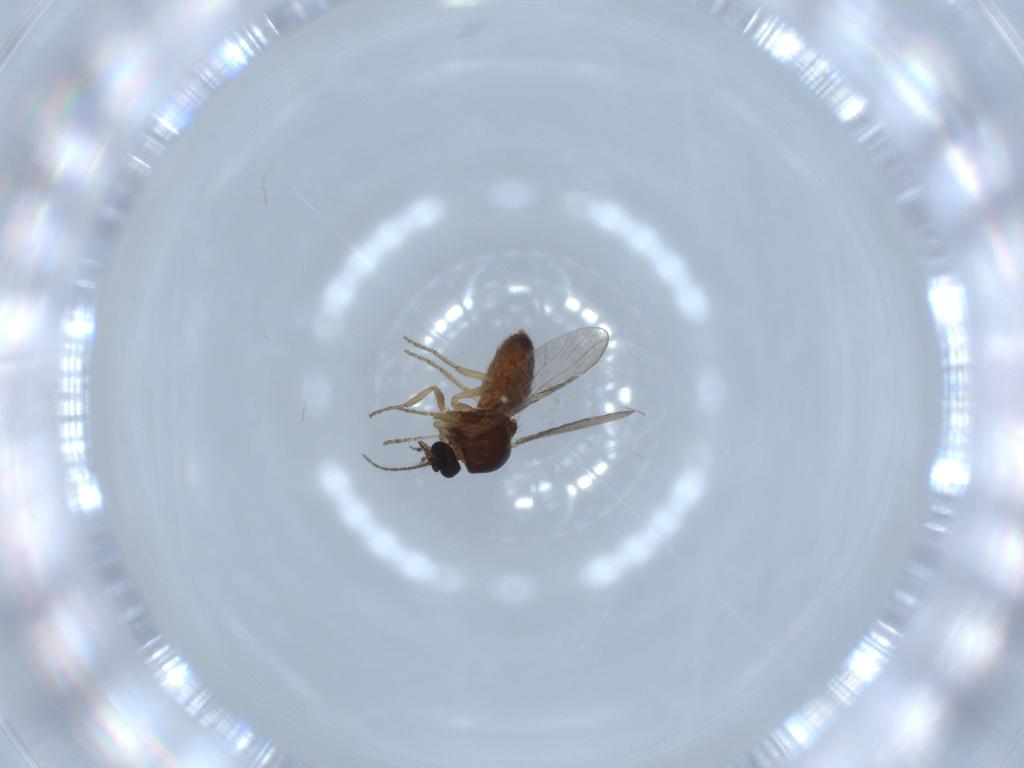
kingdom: Animalia
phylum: Arthropoda
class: Insecta
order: Diptera
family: Ceratopogonidae
